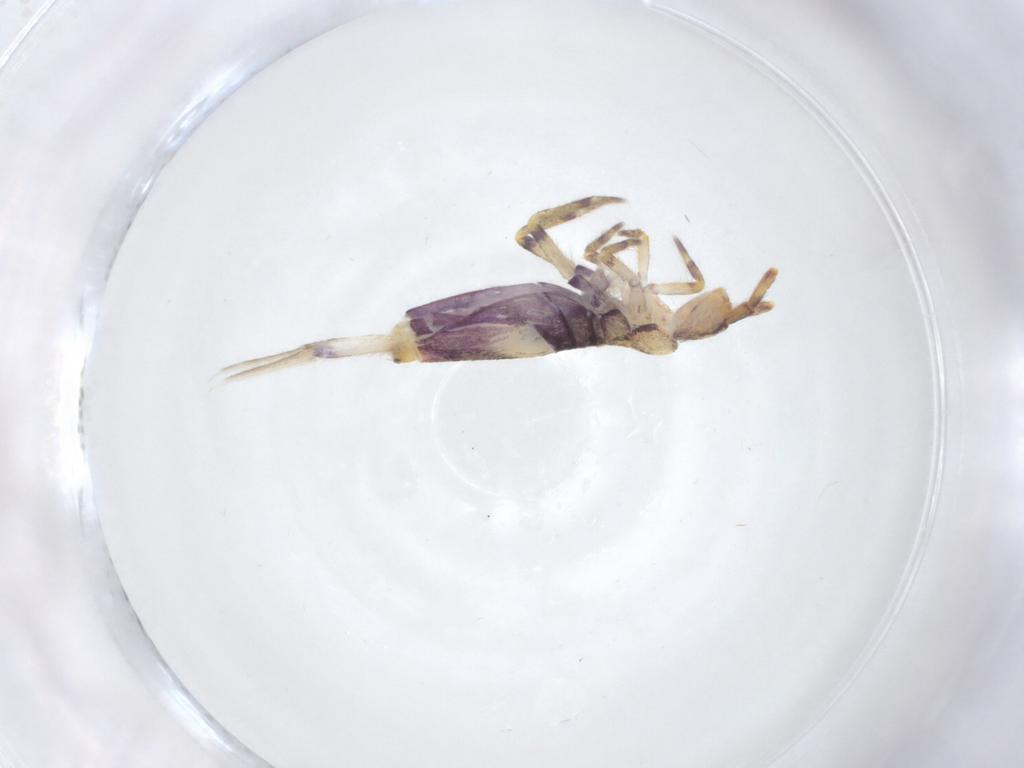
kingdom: Animalia
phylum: Arthropoda
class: Collembola
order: Entomobryomorpha
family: Entomobryidae
